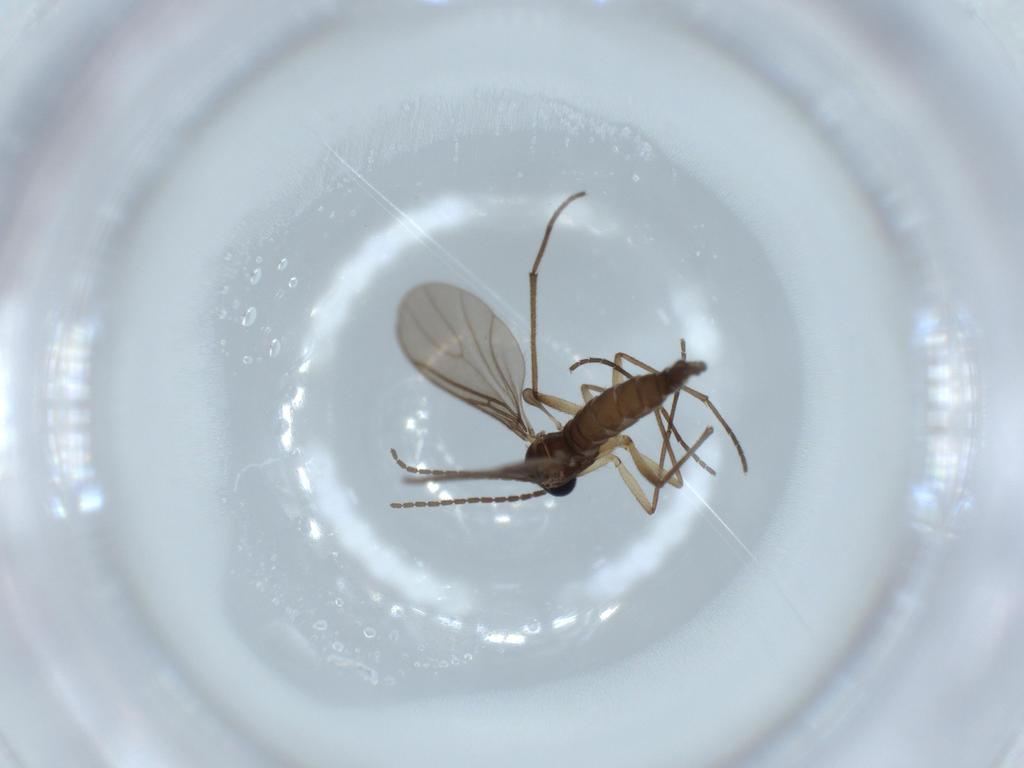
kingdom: Animalia
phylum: Arthropoda
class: Insecta
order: Diptera
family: Sciaridae
